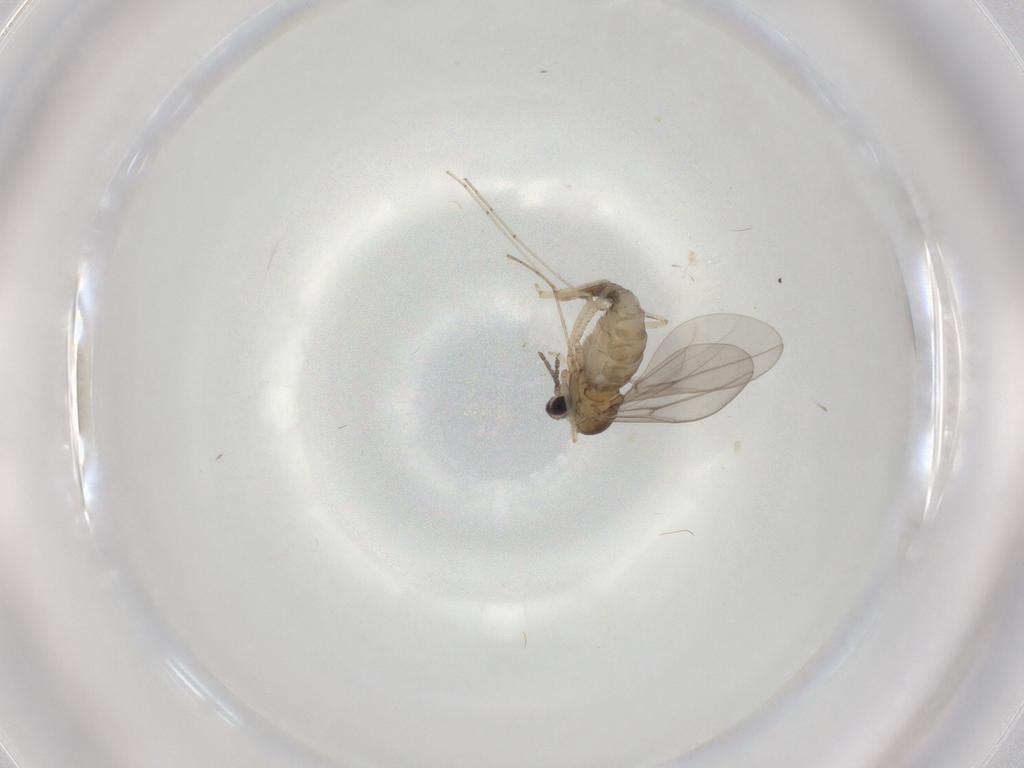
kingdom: Animalia
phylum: Arthropoda
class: Insecta
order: Diptera
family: Cecidomyiidae
